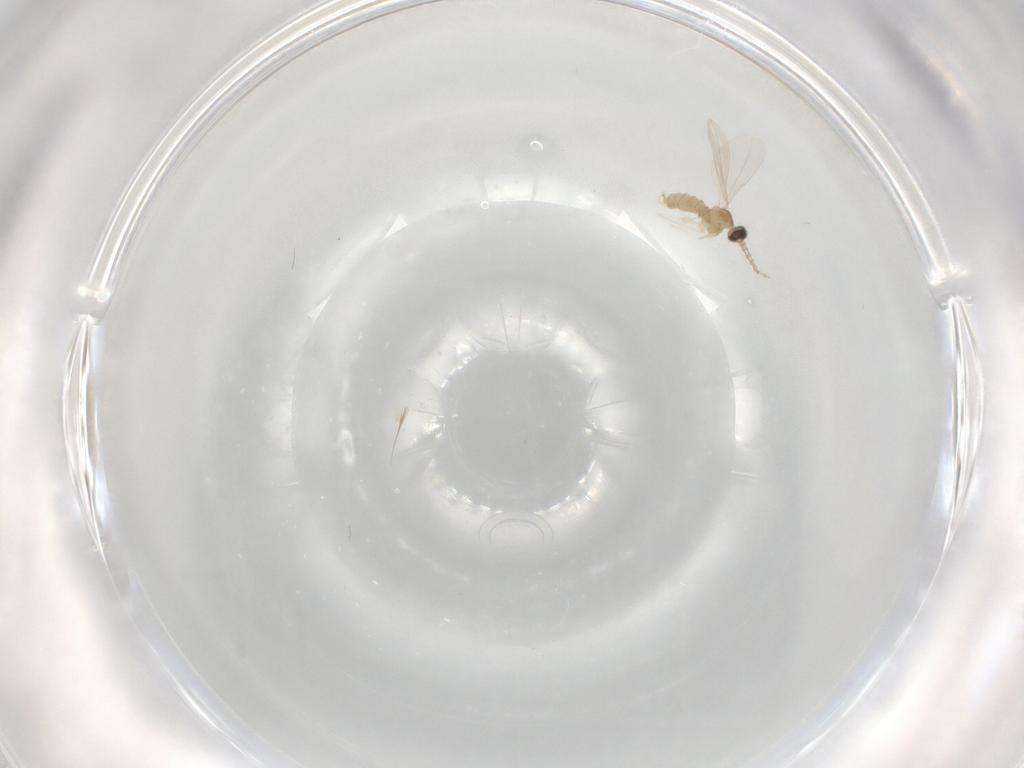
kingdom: Animalia
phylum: Arthropoda
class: Insecta
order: Diptera
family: Cecidomyiidae
